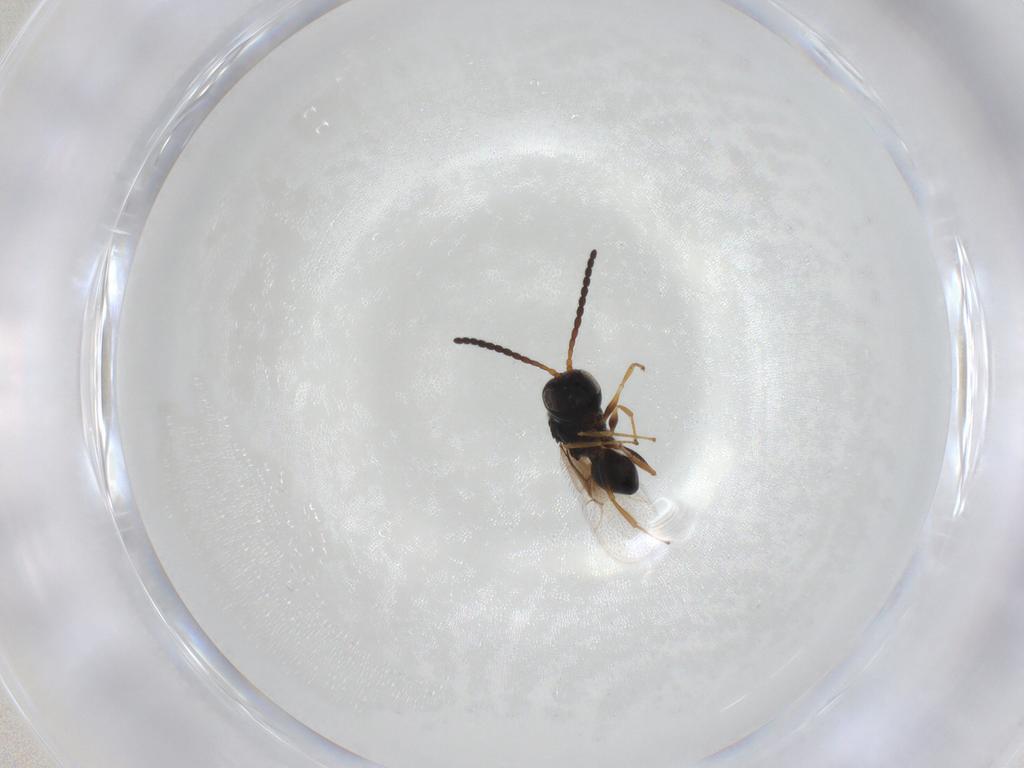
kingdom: Animalia
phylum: Arthropoda
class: Insecta
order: Hymenoptera
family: Figitidae
